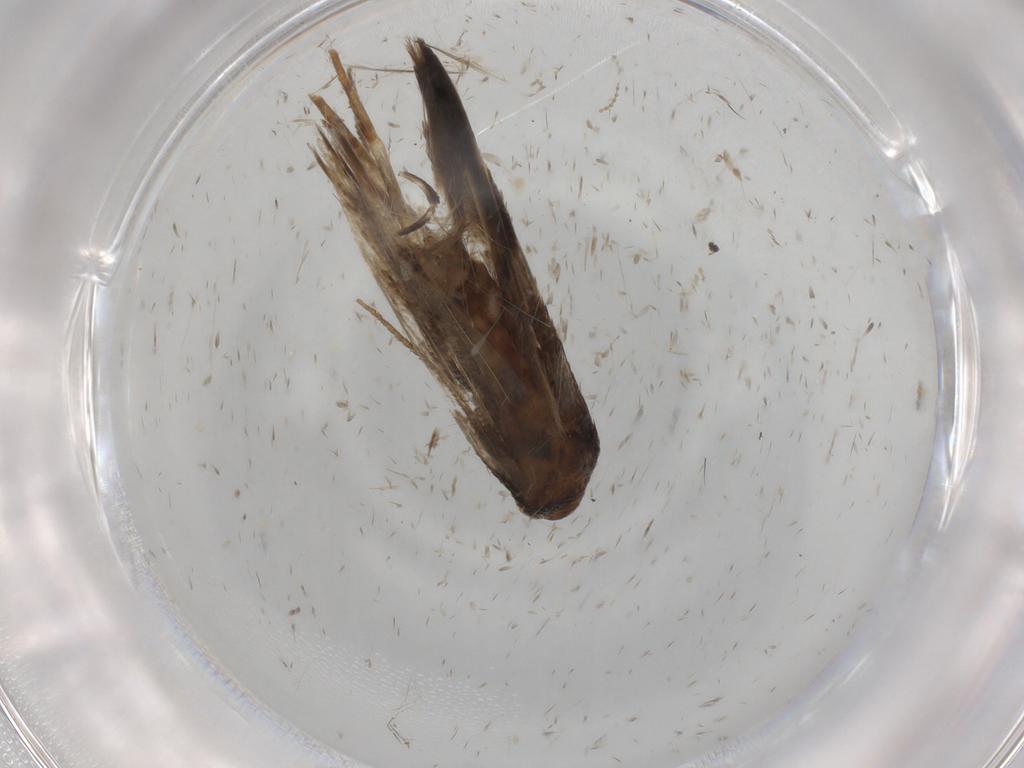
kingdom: Animalia
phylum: Arthropoda
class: Insecta
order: Lepidoptera
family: Cosmopterigidae
